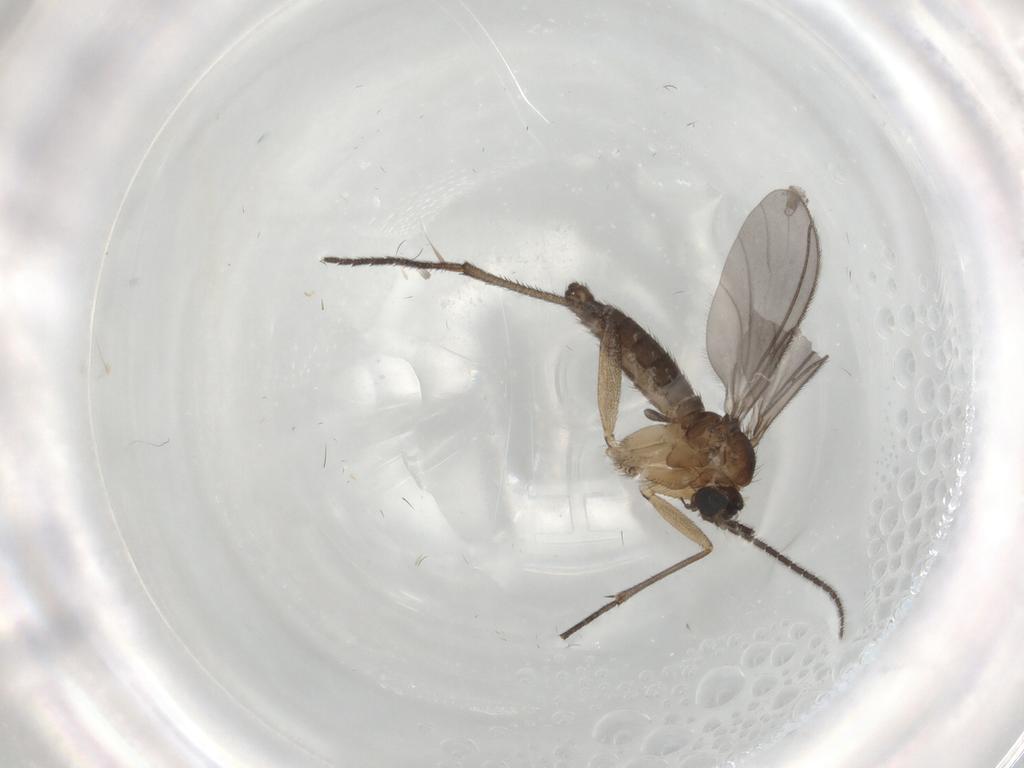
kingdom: Animalia
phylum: Arthropoda
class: Insecta
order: Diptera
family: Sciaridae
